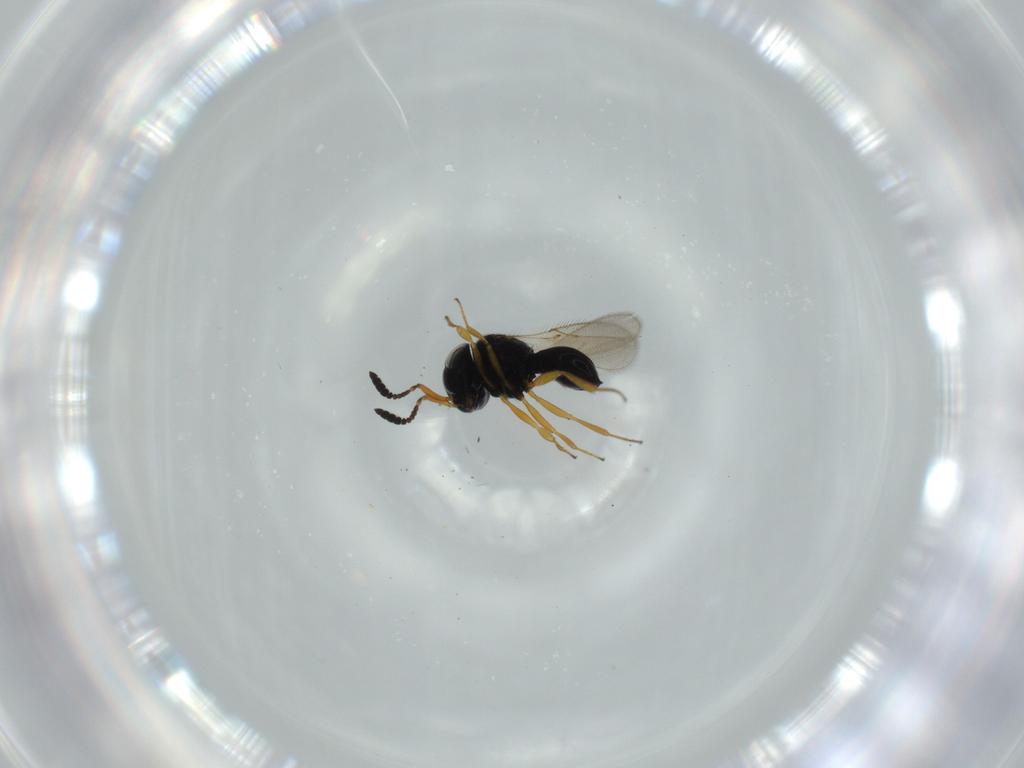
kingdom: Animalia
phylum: Arthropoda
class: Insecta
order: Hymenoptera
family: Scelionidae
